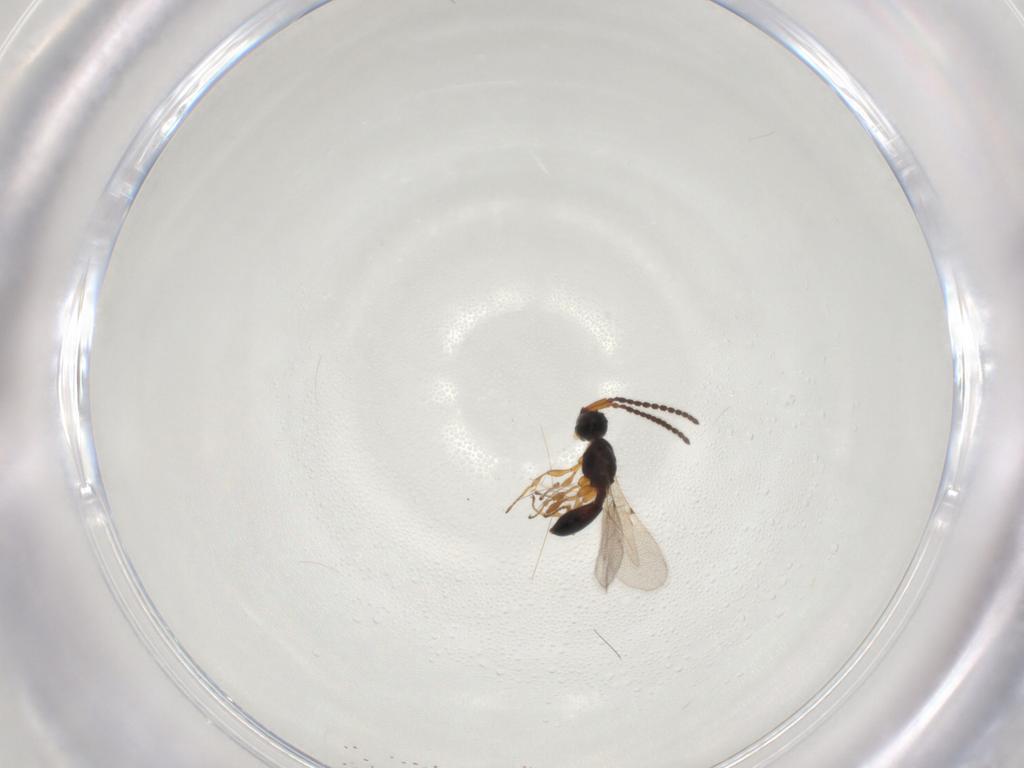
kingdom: Animalia
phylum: Arthropoda
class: Insecta
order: Hymenoptera
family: Diapriidae
